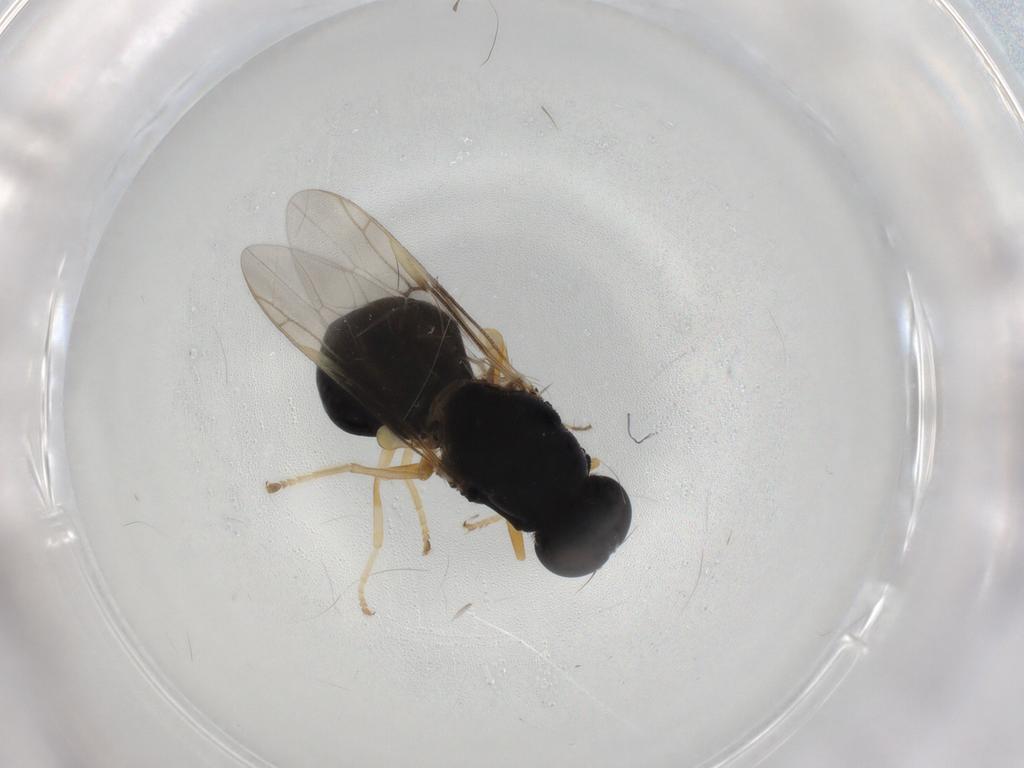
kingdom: Animalia
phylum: Arthropoda
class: Insecta
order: Diptera
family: Stratiomyidae
